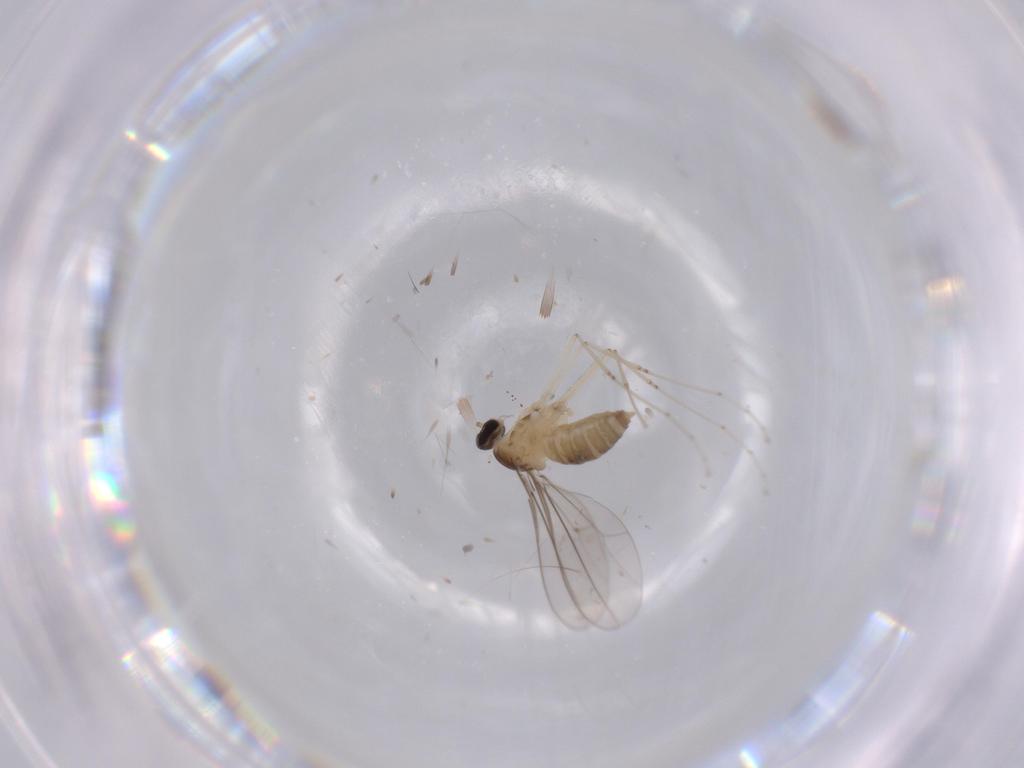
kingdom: Animalia
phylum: Arthropoda
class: Insecta
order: Diptera
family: Cecidomyiidae
